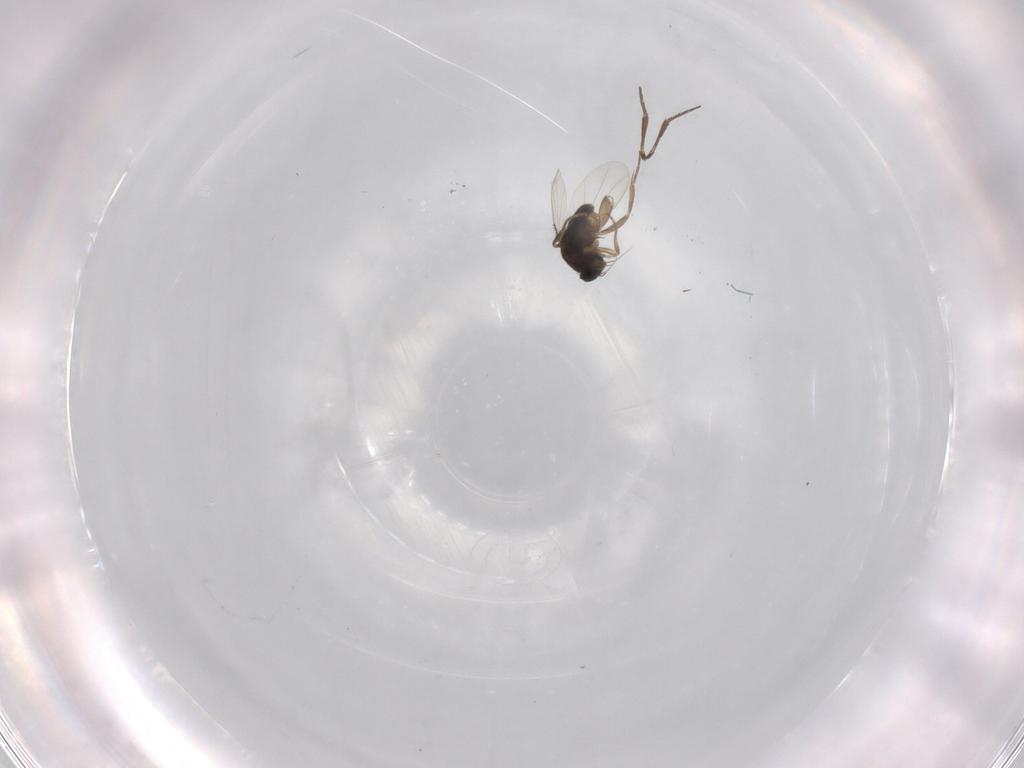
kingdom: Animalia
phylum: Arthropoda
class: Insecta
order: Diptera
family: Phoridae
